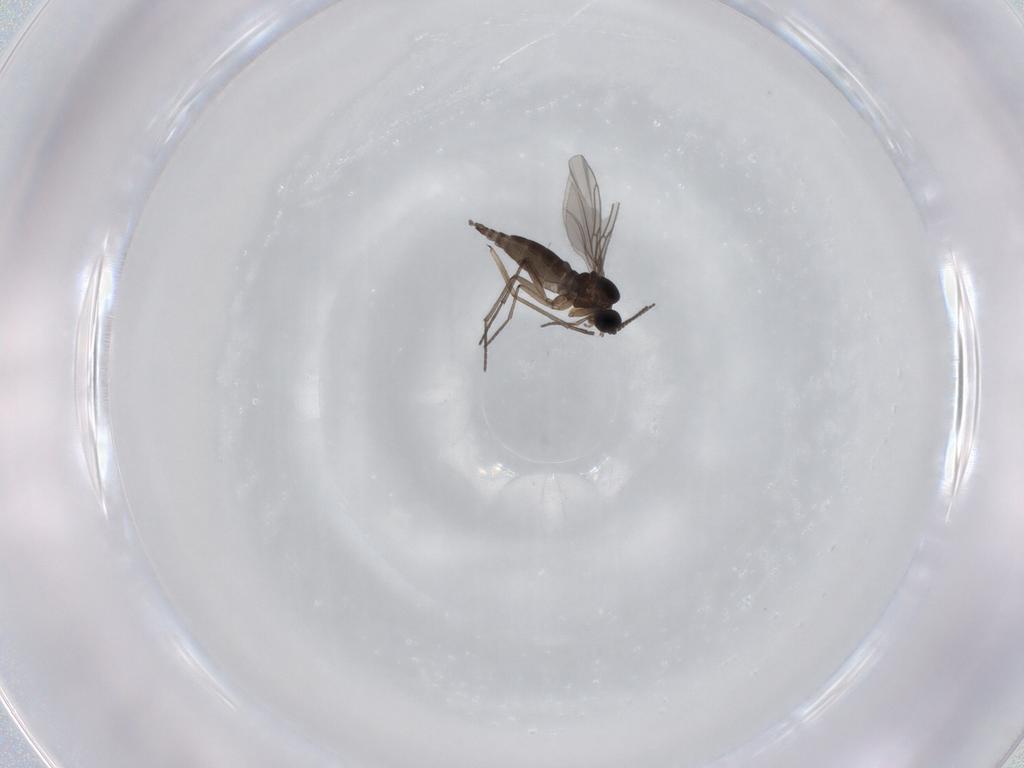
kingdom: Animalia
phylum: Arthropoda
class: Insecta
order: Diptera
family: Sciaridae
